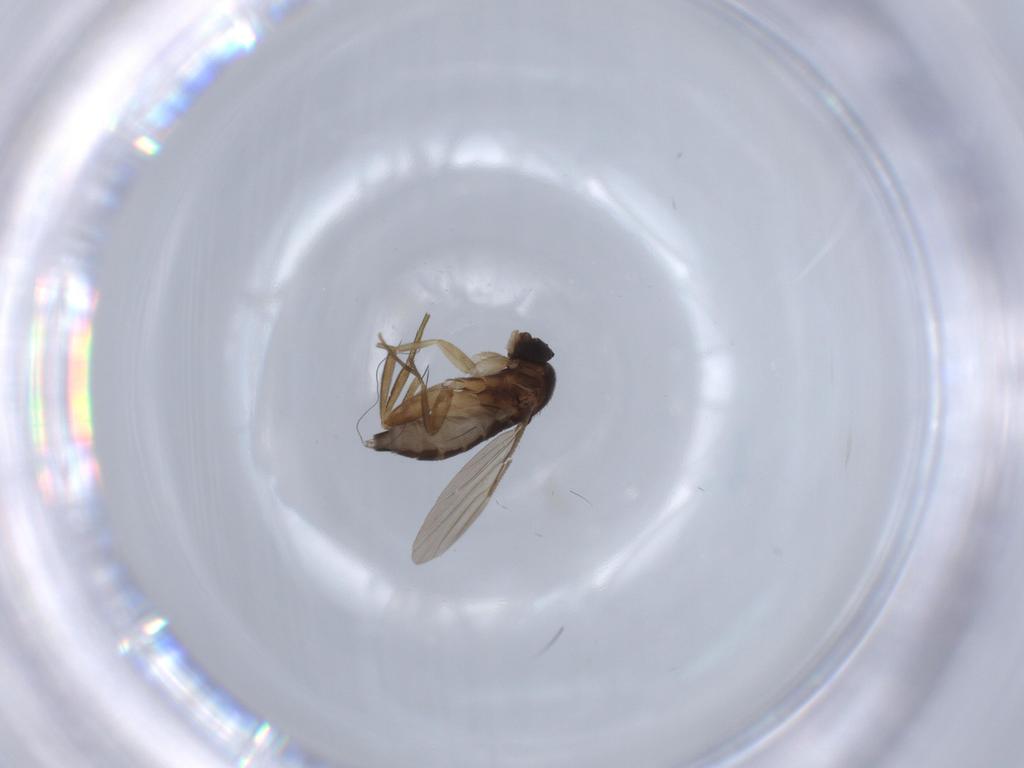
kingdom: Animalia
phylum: Arthropoda
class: Insecta
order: Diptera
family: Phoridae
